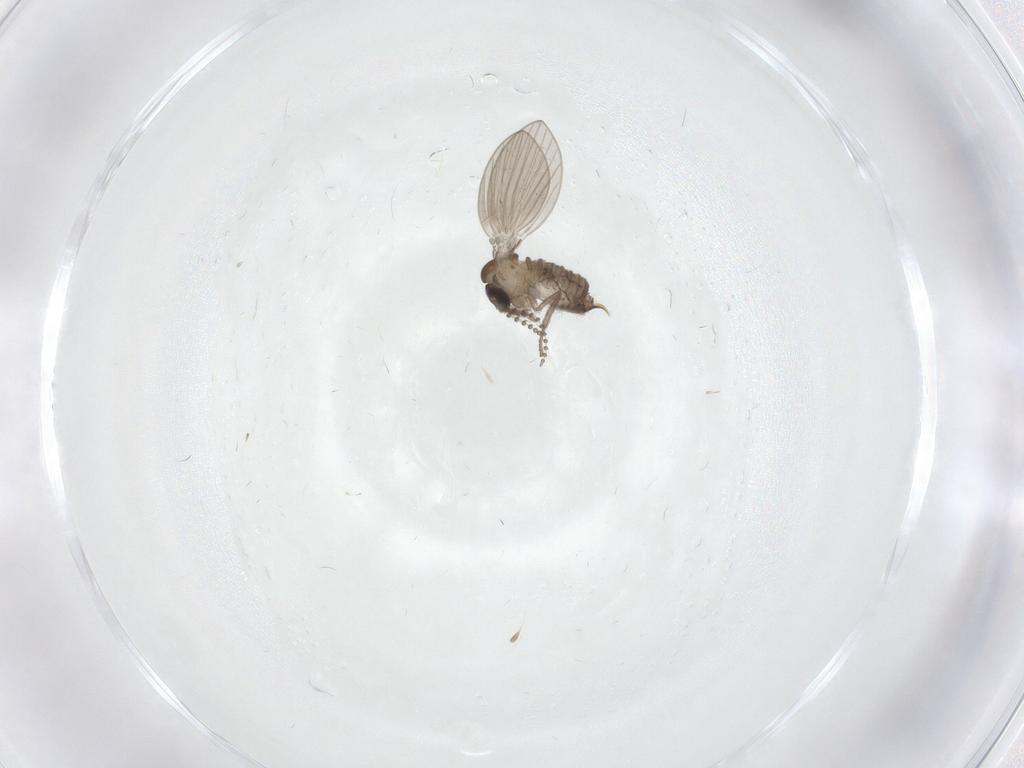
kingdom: Animalia
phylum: Arthropoda
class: Insecta
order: Diptera
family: Psychodidae
